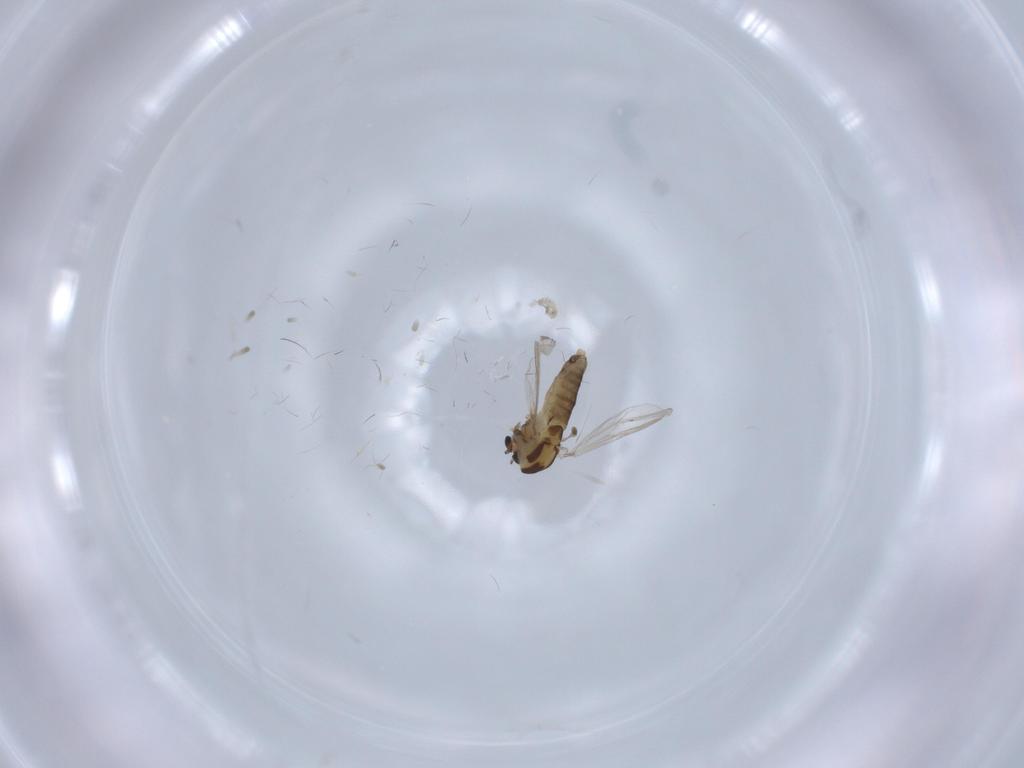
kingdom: Animalia
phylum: Arthropoda
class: Insecta
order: Diptera
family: Chironomidae
